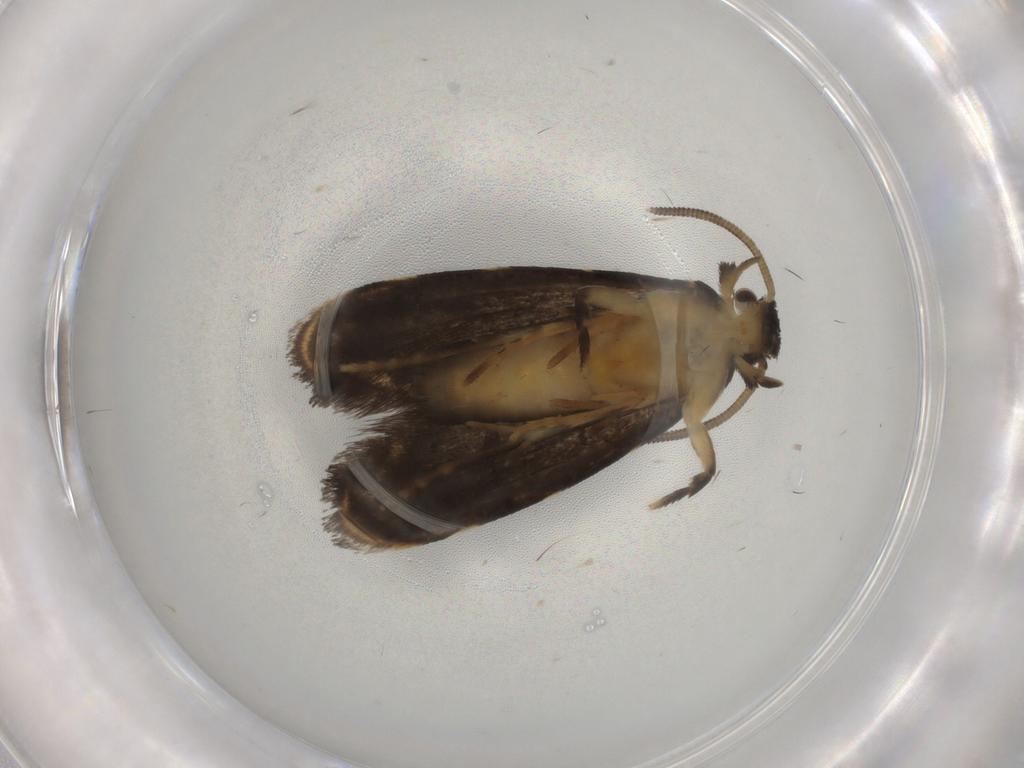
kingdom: Animalia
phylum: Arthropoda
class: Insecta
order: Lepidoptera
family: Dryadaulidae
